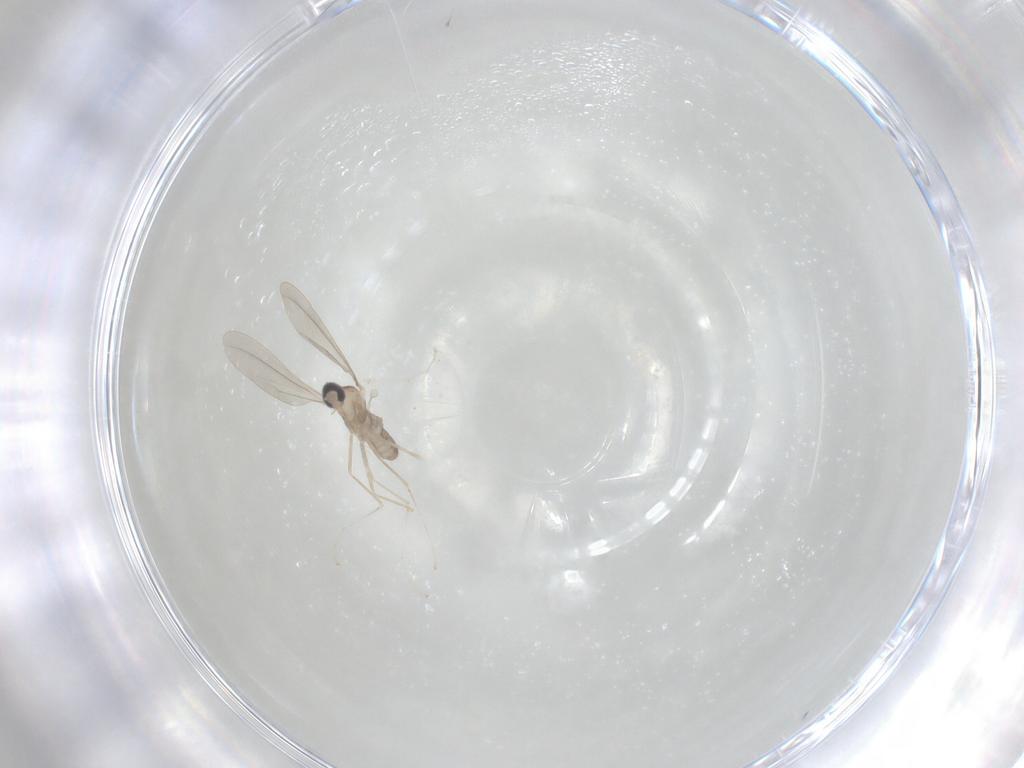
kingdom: Animalia
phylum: Arthropoda
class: Insecta
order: Diptera
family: Cecidomyiidae
